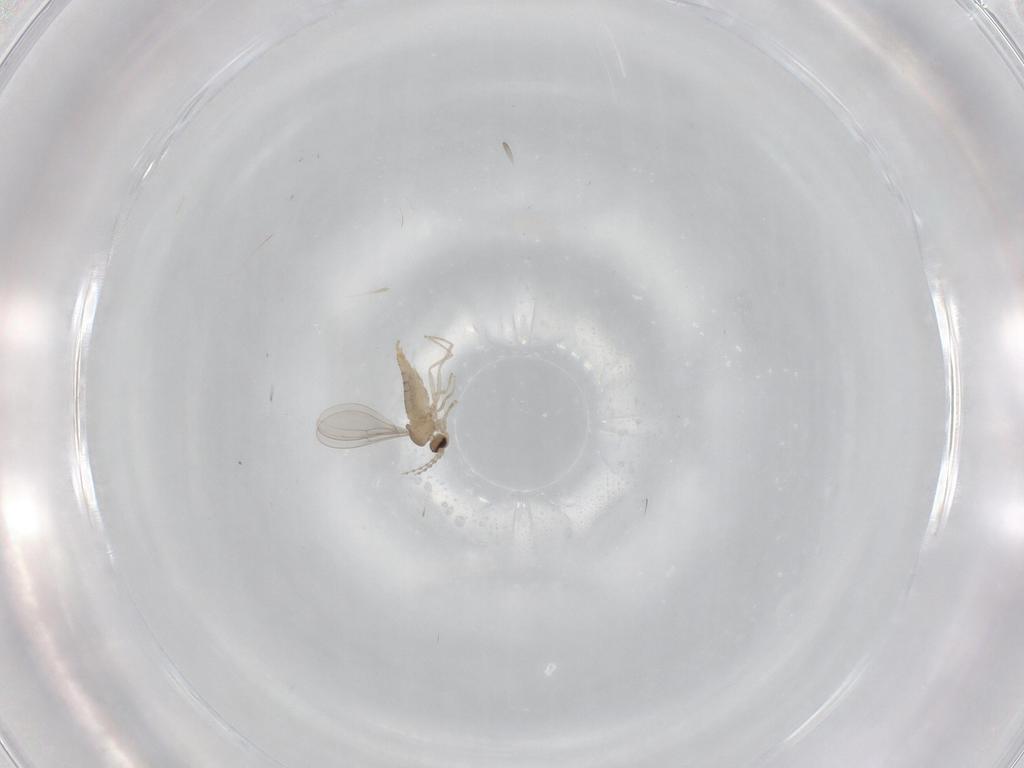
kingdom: Animalia
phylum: Arthropoda
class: Insecta
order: Diptera
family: Cecidomyiidae
